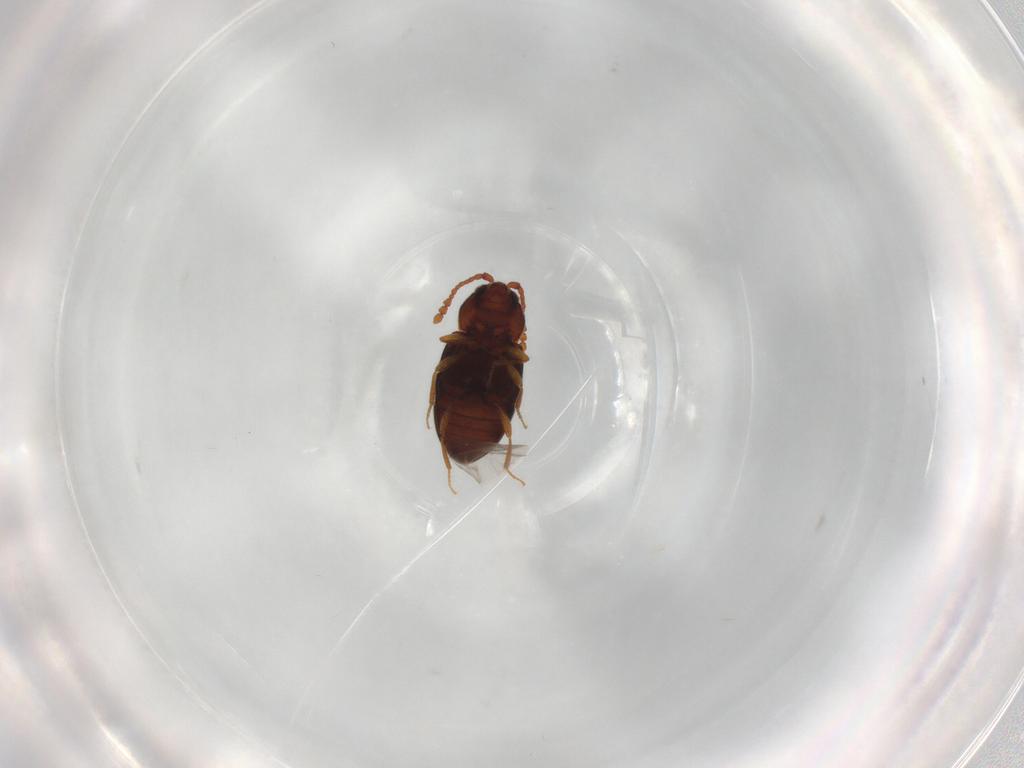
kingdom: Animalia
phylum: Arthropoda
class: Insecta
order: Coleoptera
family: Cryptophagidae
